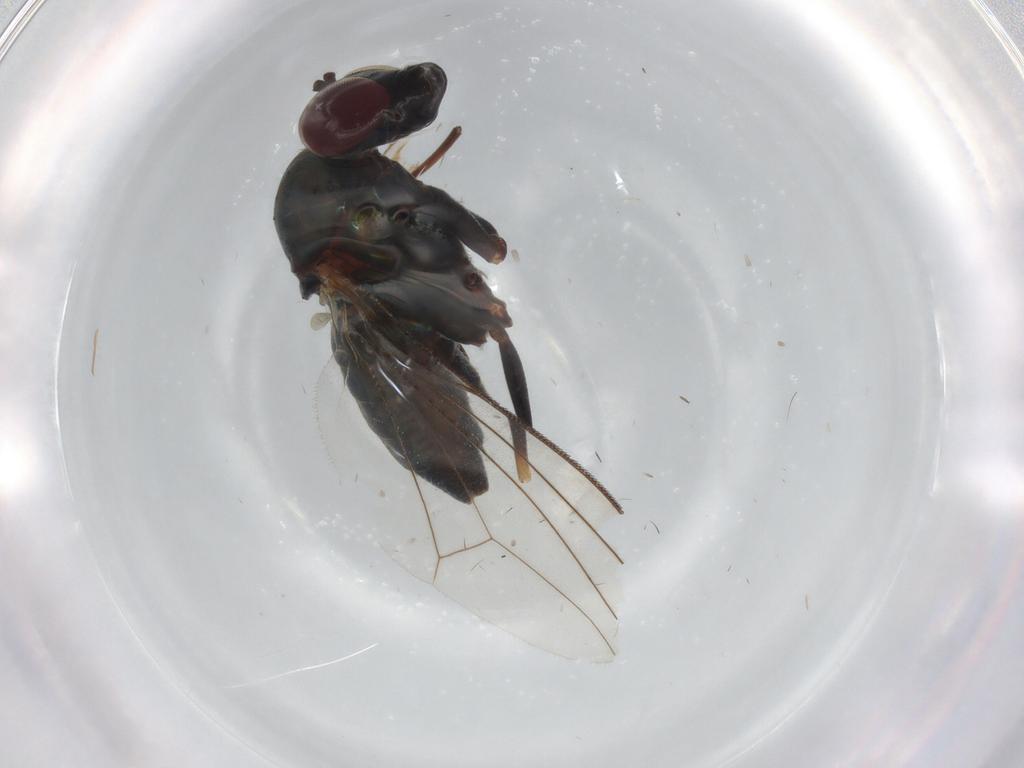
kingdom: Animalia
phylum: Arthropoda
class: Insecta
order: Diptera
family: Dolichopodidae
